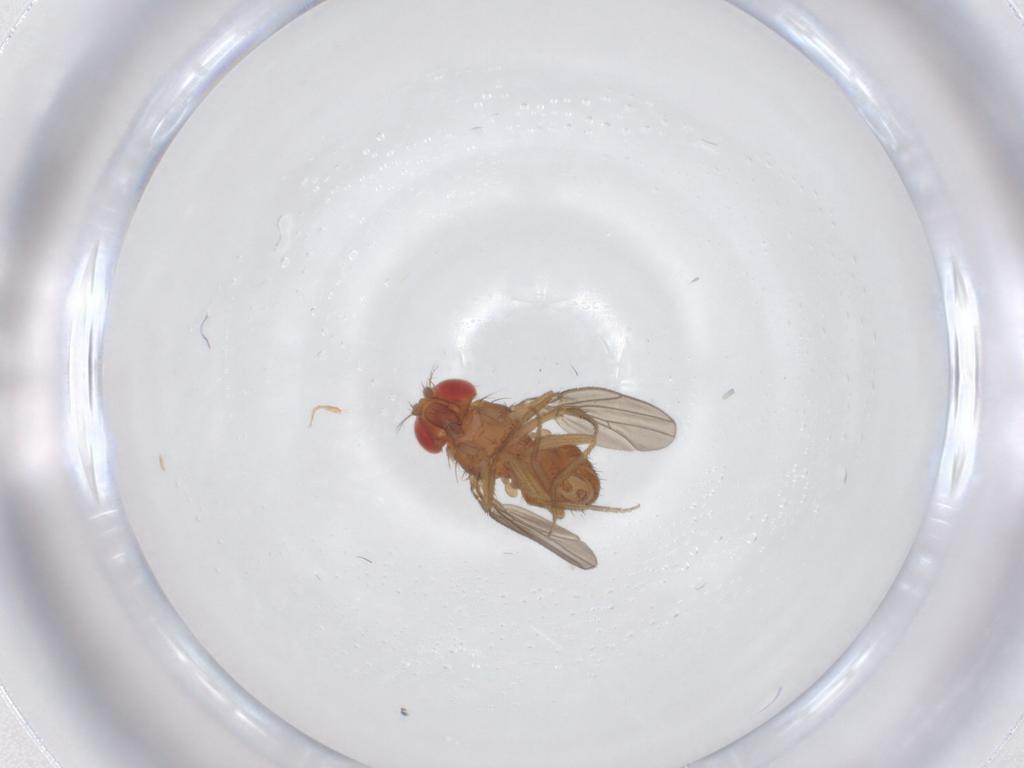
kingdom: Animalia
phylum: Arthropoda
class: Insecta
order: Diptera
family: Drosophilidae
